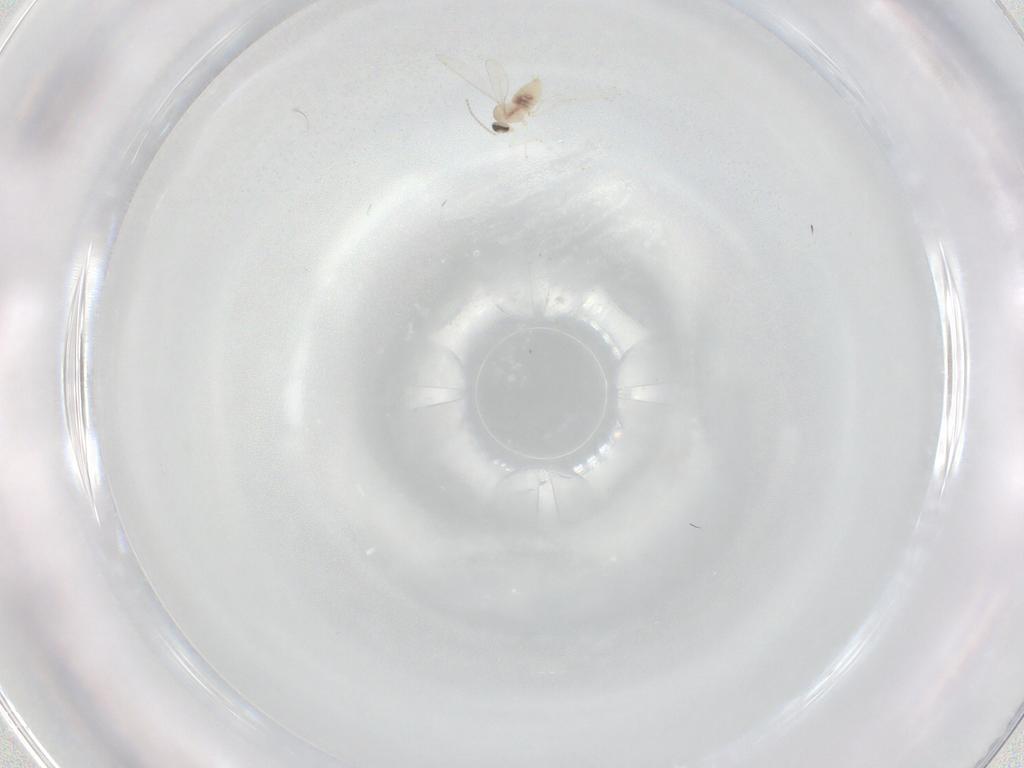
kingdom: Animalia
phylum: Arthropoda
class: Insecta
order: Diptera
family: Cecidomyiidae
